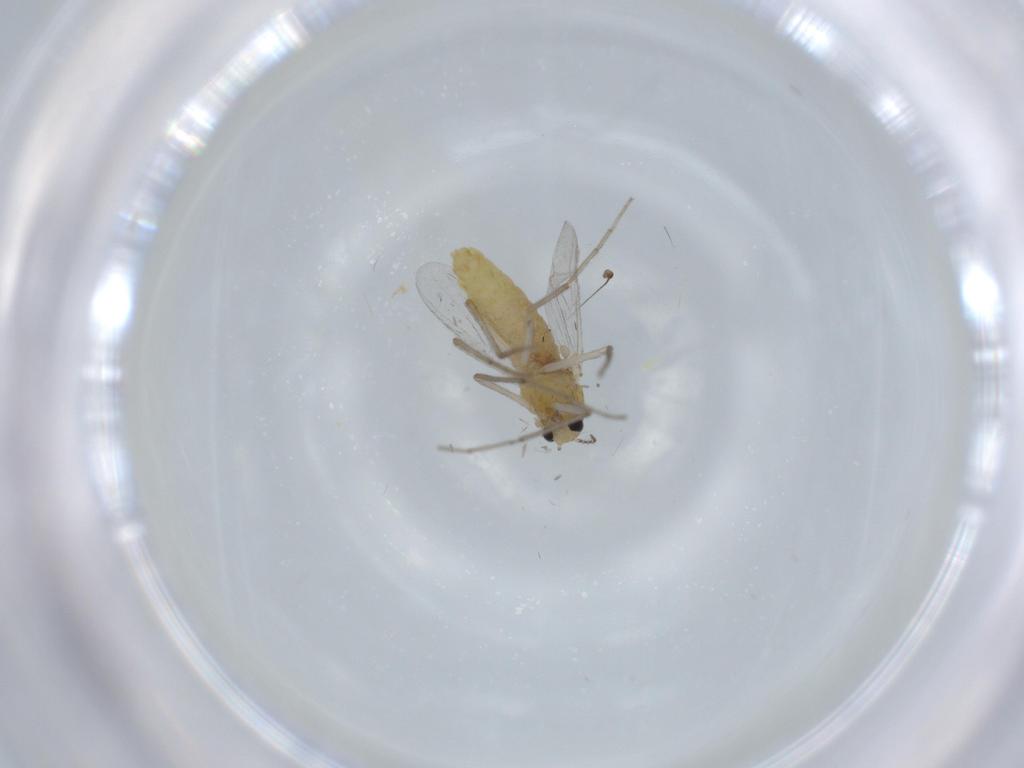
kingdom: Animalia
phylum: Arthropoda
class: Insecta
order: Diptera
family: Chironomidae
